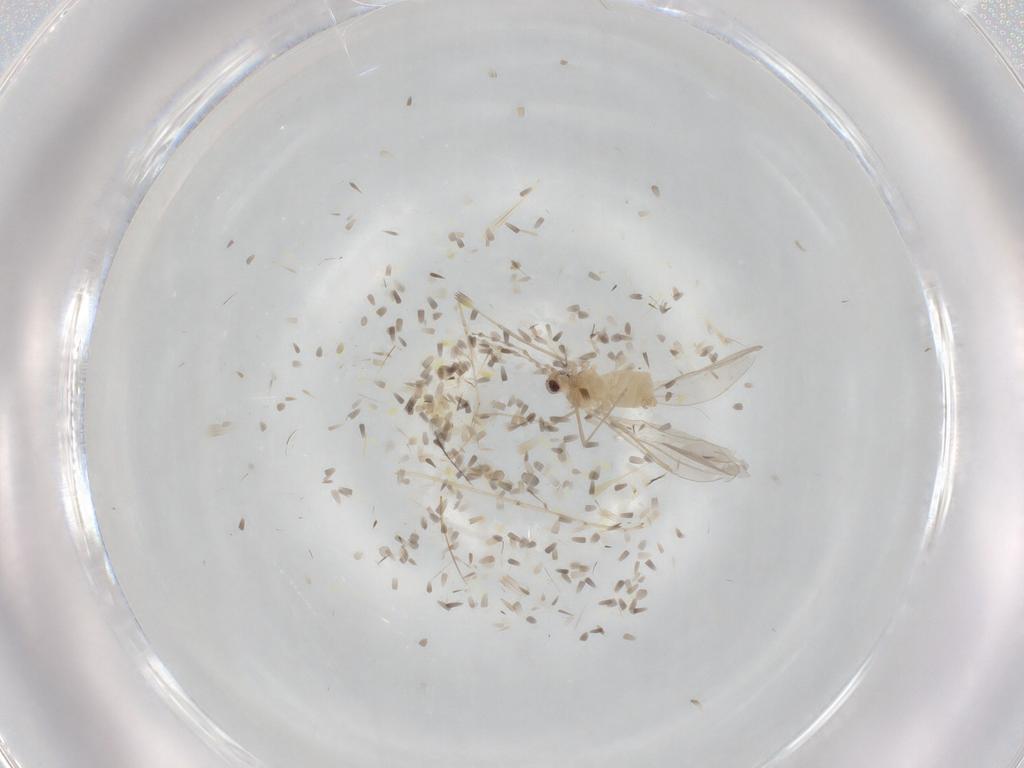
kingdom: Animalia
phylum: Arthropoda
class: Insecta
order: Diptera
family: Cecidomyiidae
